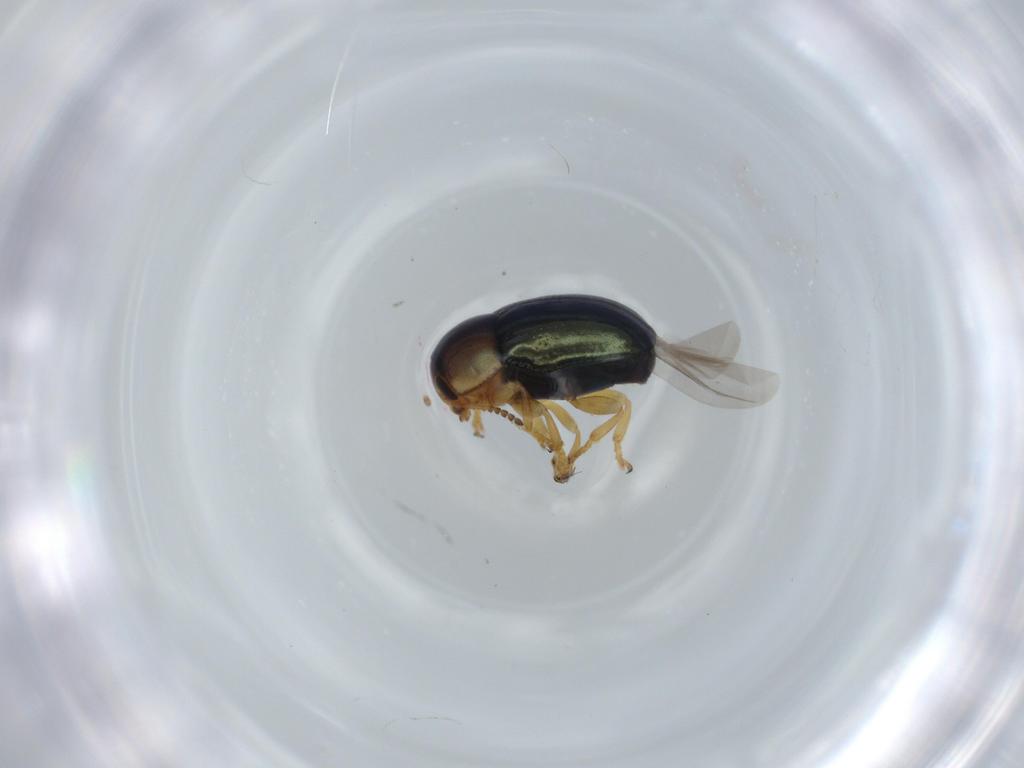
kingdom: Animalia
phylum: Arthropoda
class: Insecta
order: Coleoptera
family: Chrysomelidae
